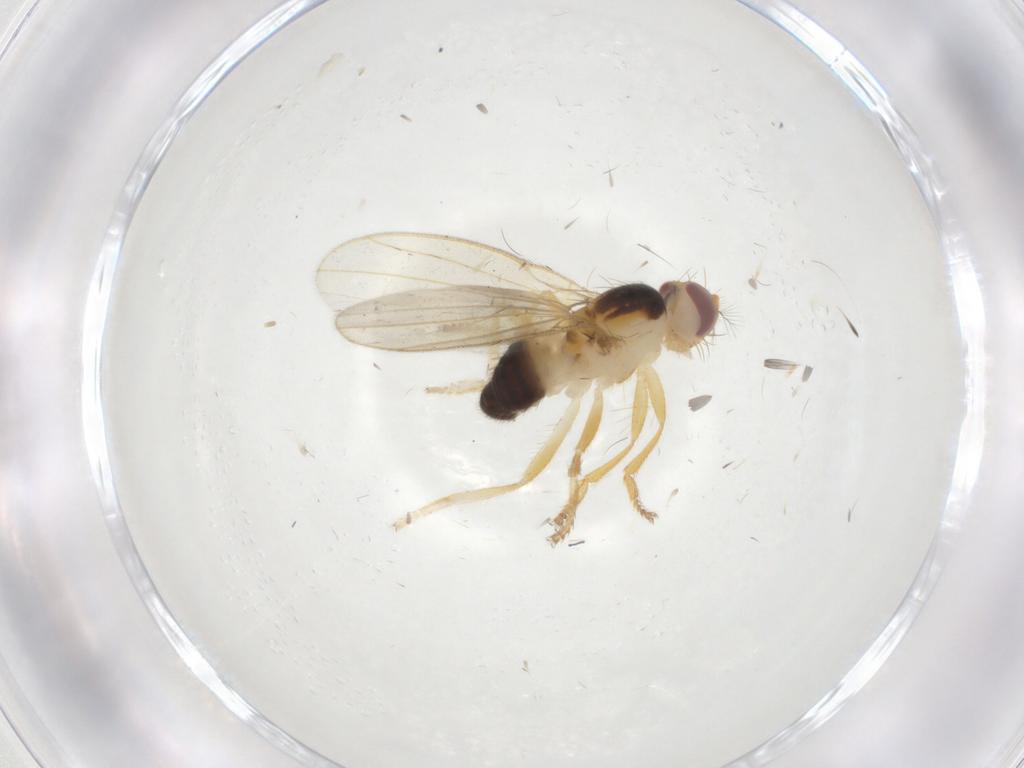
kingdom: Animalia
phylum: Arthropoda
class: Insecta
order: Diptera
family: Periscelididae
